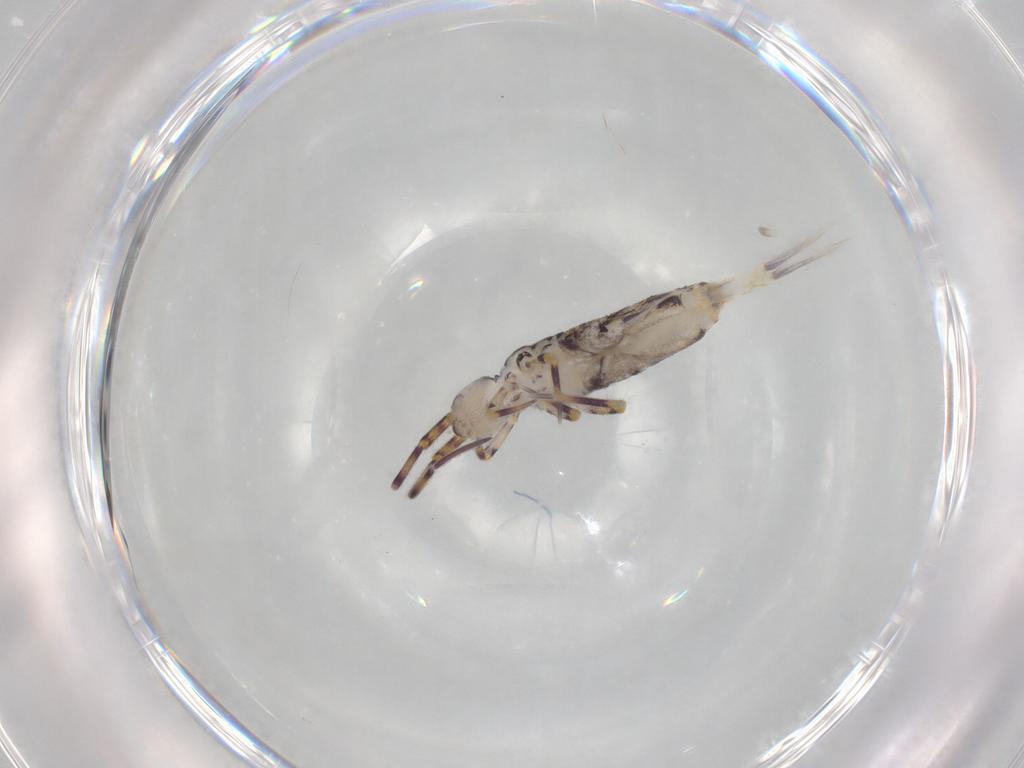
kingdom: Animalia
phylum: Arthropoda
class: Collembola
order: Entomobryomorpha
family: Entomobryidae
